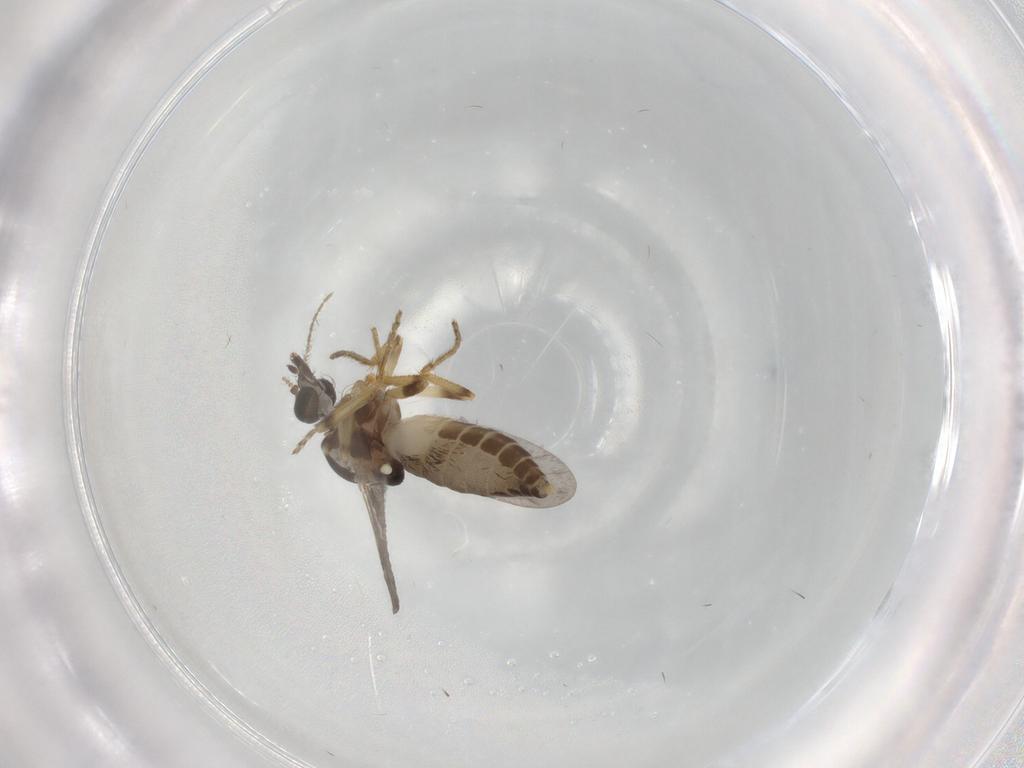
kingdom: Animalia
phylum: Arthropoda
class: Insecta
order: Diptera
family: Ceratopogonidae
